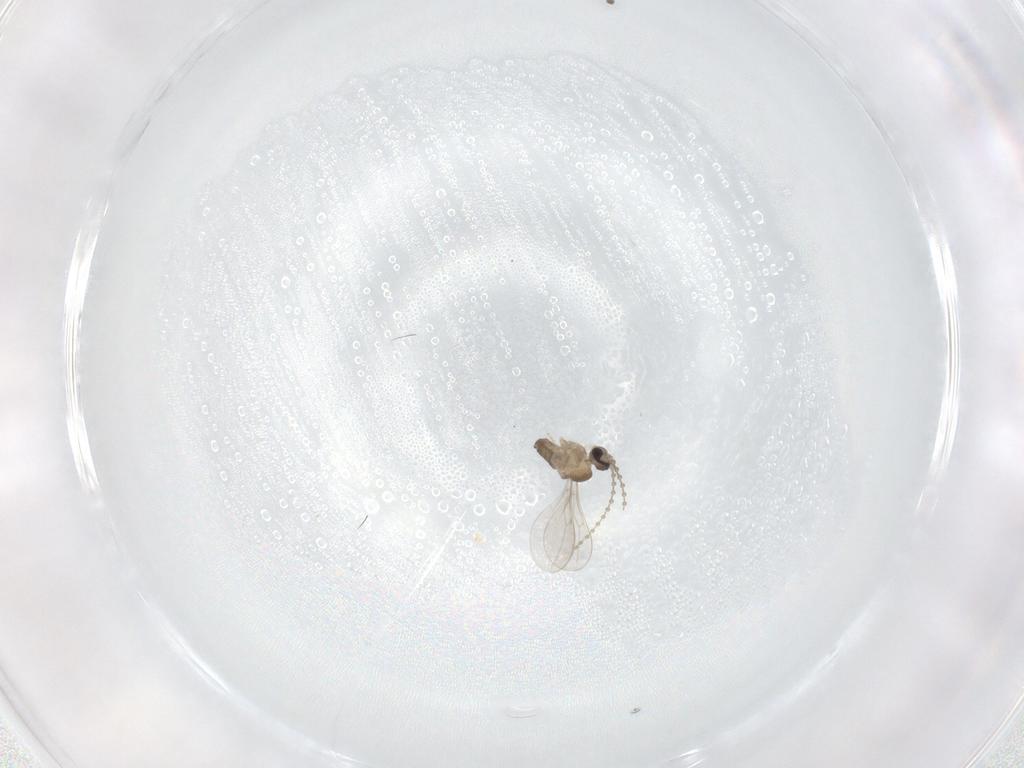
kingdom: Animalia
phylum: Arthropoda
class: Insecta
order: Diptera
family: Cecidomyiidae
